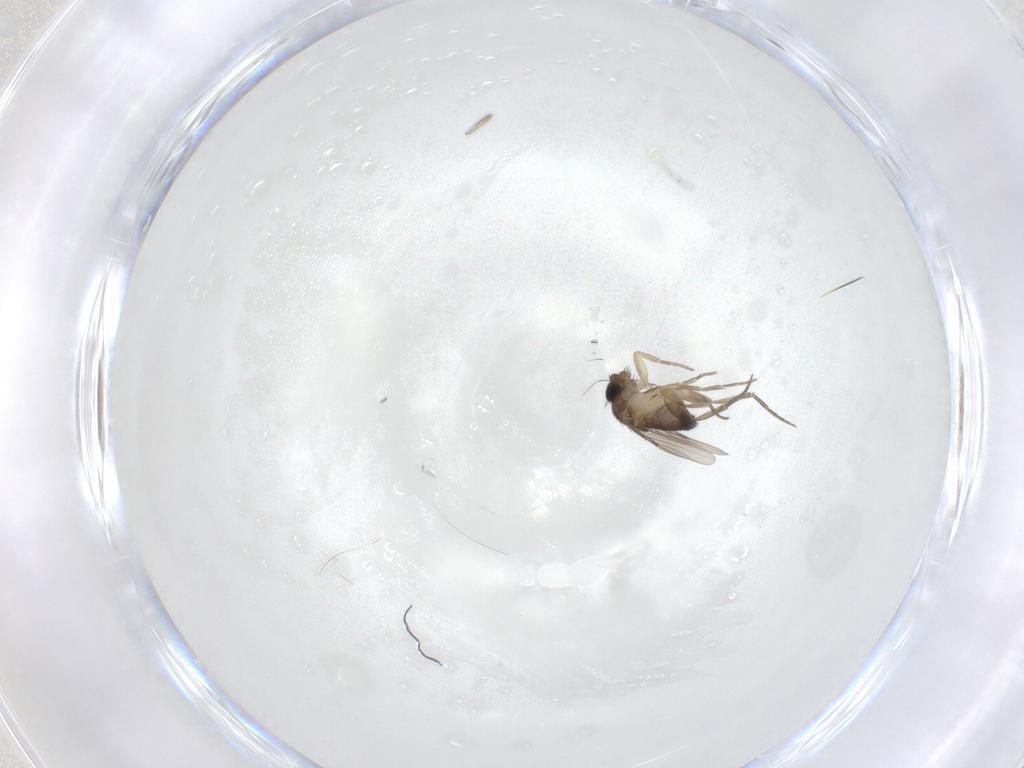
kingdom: Animalia
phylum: Arthropoda
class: Insecta
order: Diptera
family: Phoridae
